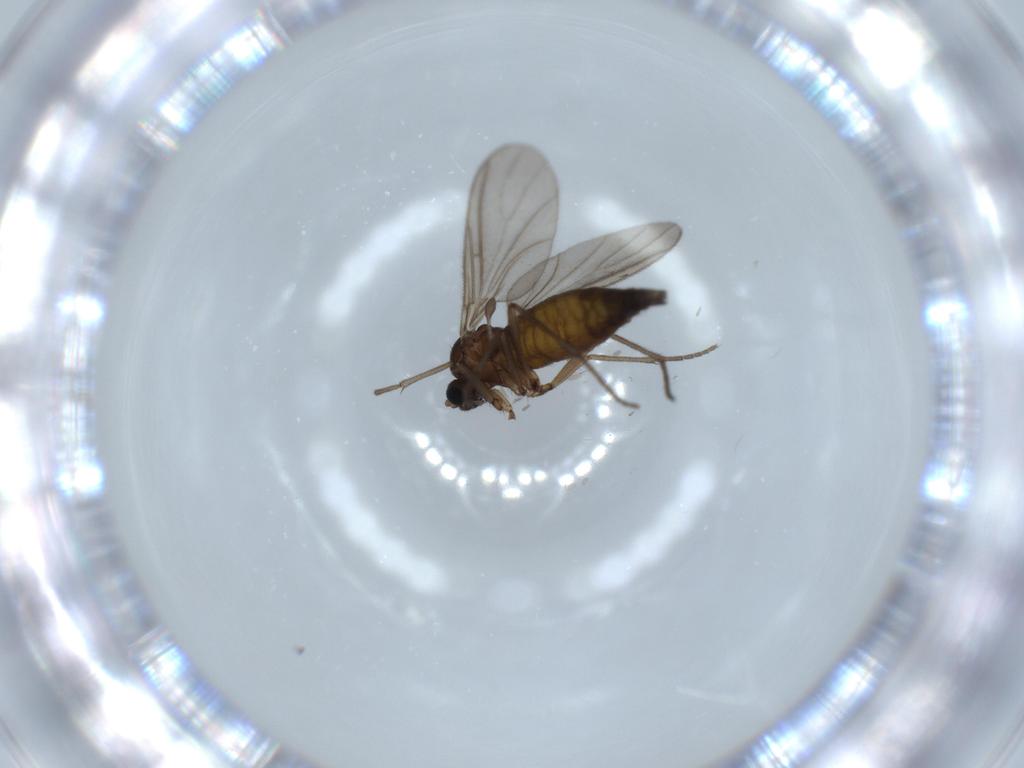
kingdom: Animalia
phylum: Arthropoda
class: Insecta
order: Diptera
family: Sciaridae
